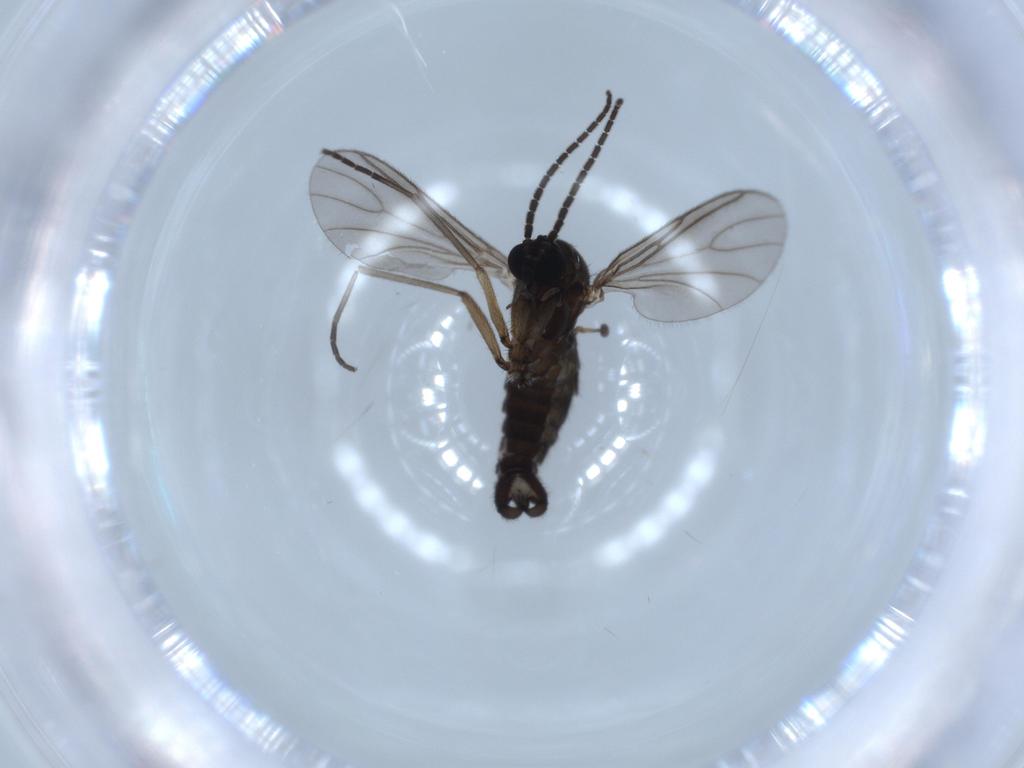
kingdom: Animalia
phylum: Arthropoda
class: Insecta
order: Diptera
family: Sciaridae
